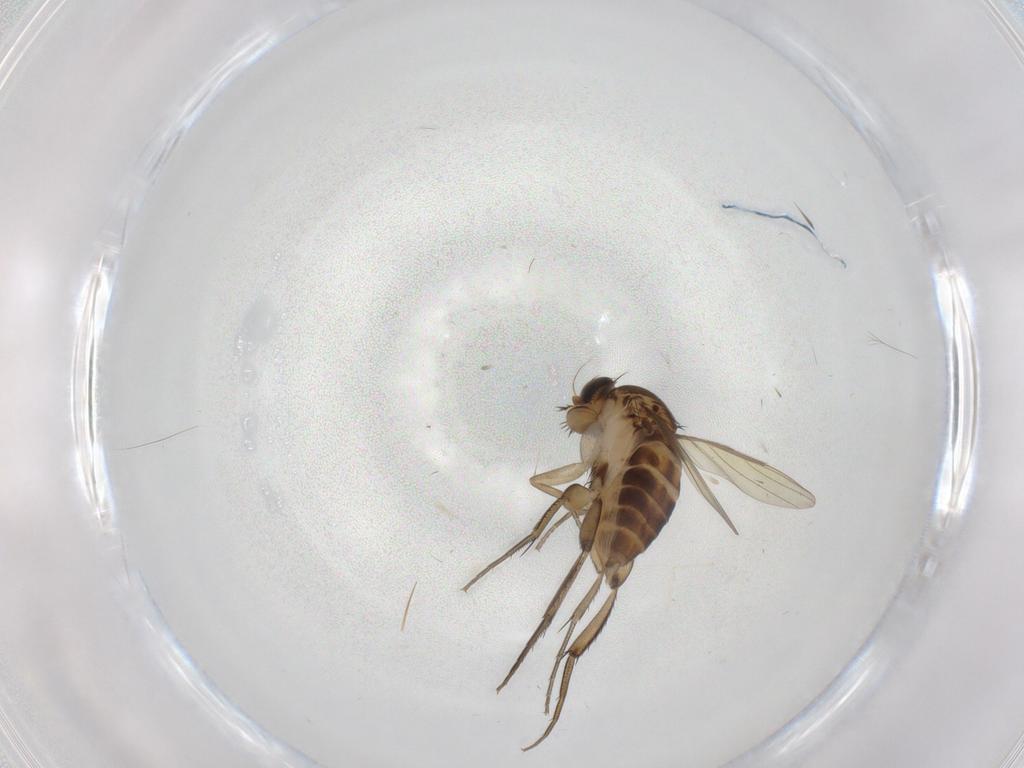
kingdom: Animalia
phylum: Arthropoda
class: Insecta
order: Diptera
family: Phoridae
